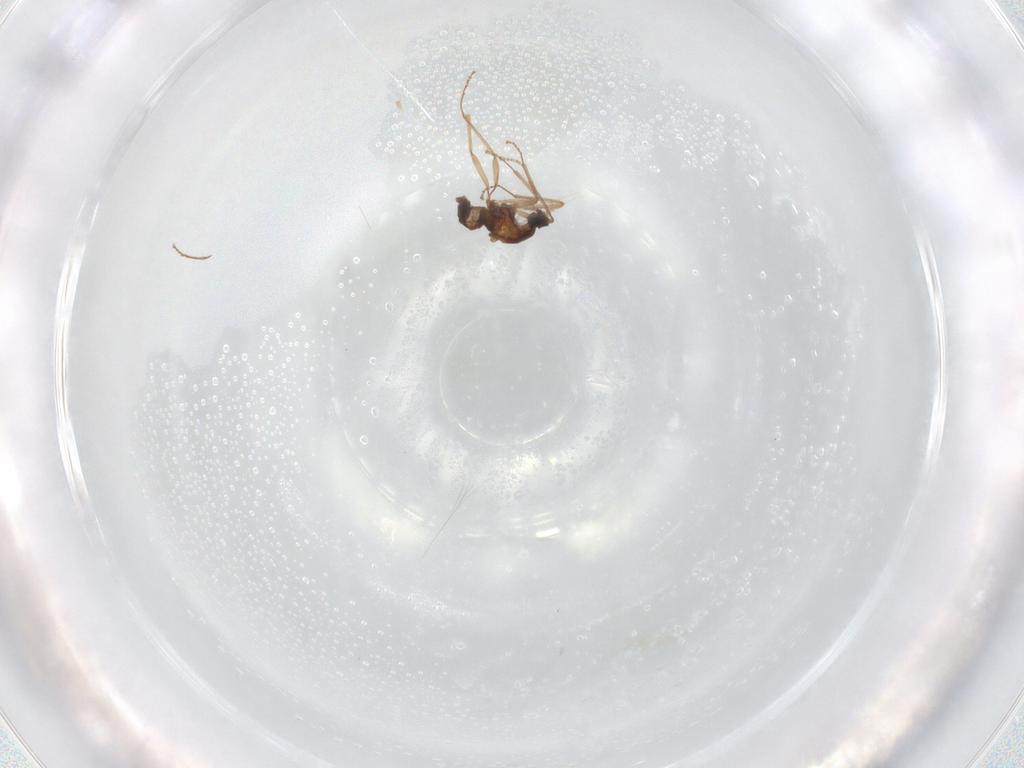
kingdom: Animalia
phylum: Arthropoda
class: Insecta
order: Diptera
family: Cecidomyiidae
